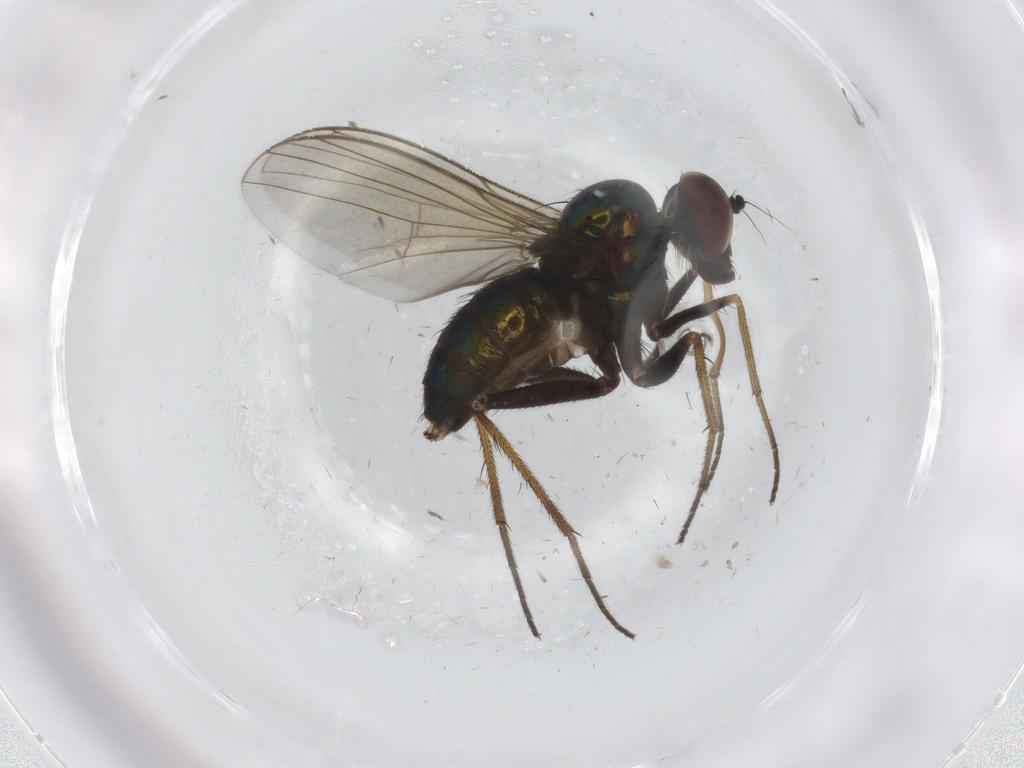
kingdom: Animalia
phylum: Arthropoda
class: Insecta
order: Diptera
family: Dolichopodidae
